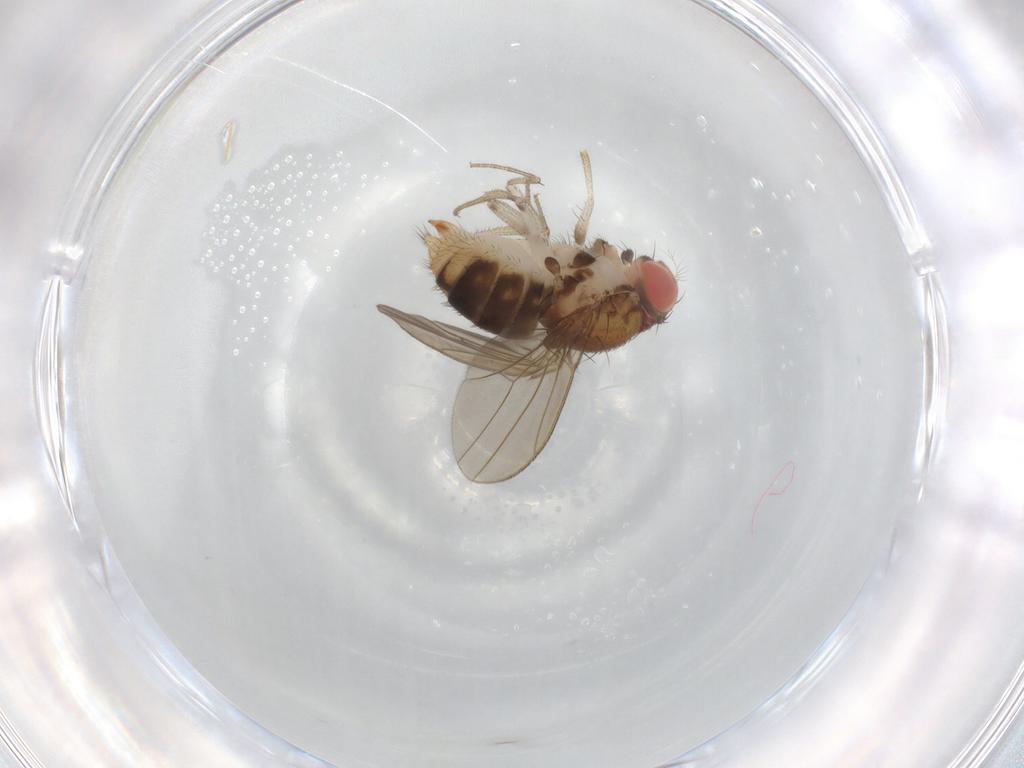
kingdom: Animalia
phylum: Arthropoda
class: Insecta
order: Diptera
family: Drosophilidae
